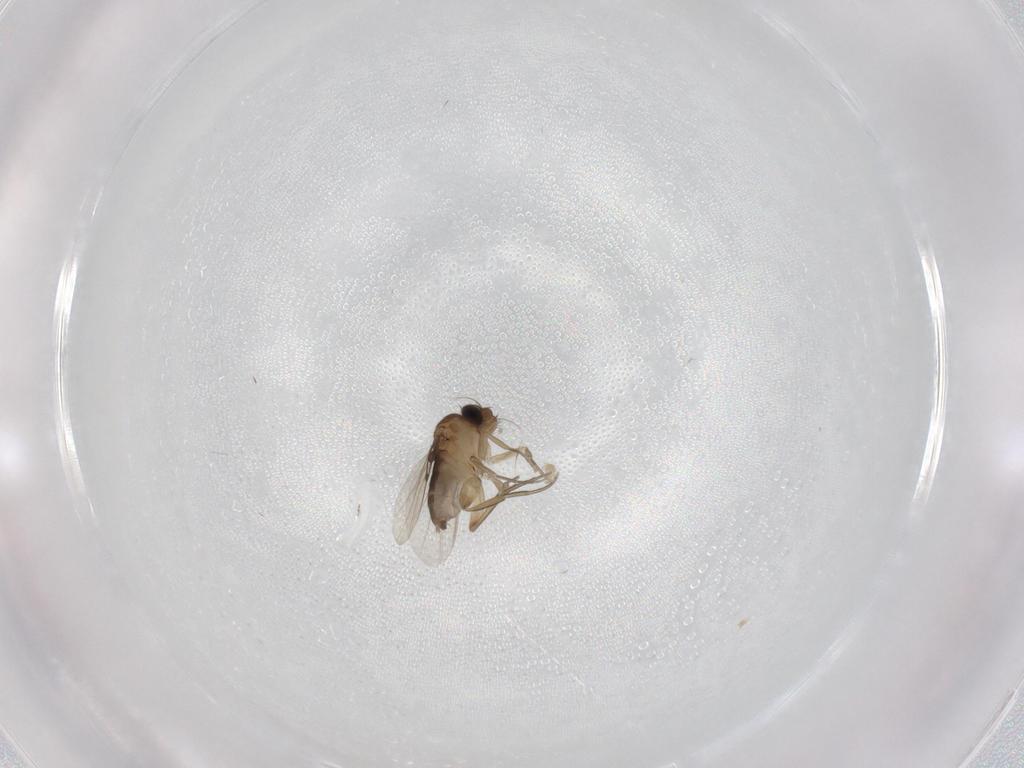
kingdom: Animalia
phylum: Arthropoda
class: Insecta
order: Diptera
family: Phoridae
